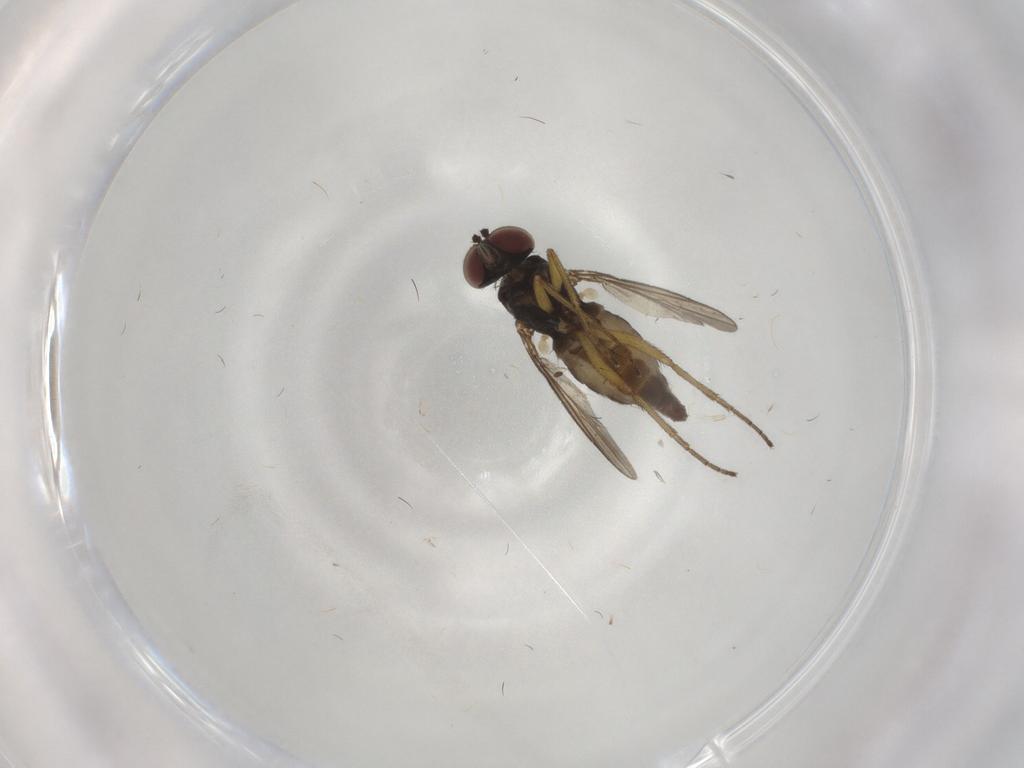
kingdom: Animalia
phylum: Arthropoda
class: Insecta
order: Diptera
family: Dolichopodidae
